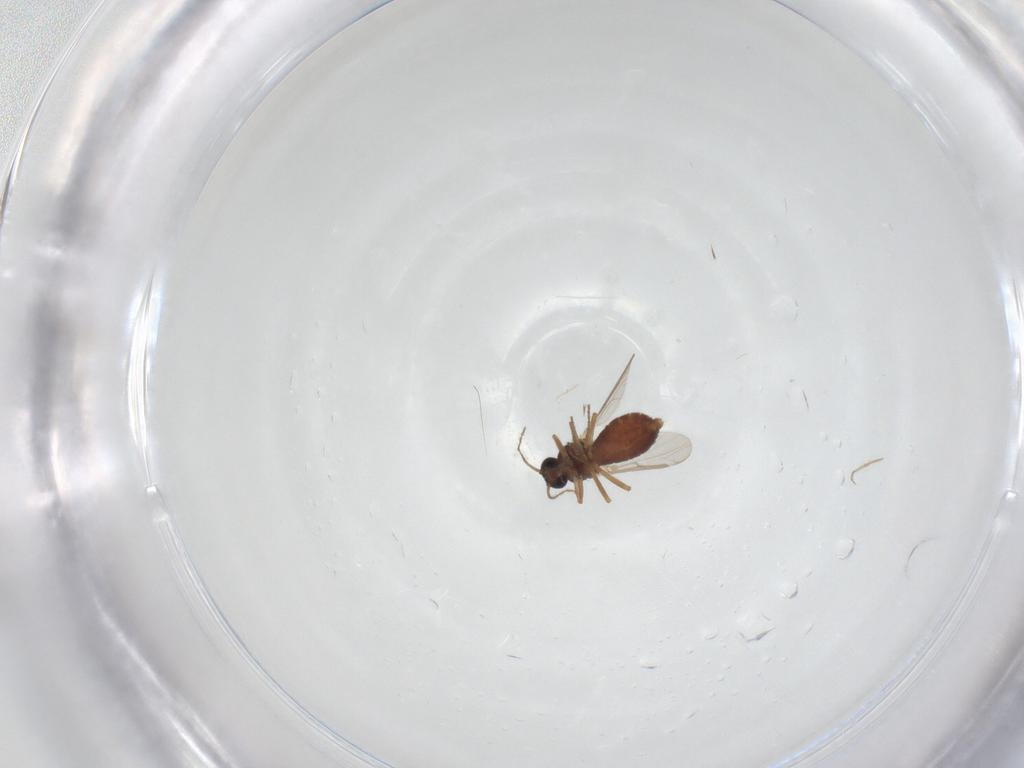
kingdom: Animalia
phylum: Arthropoda
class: Insecta
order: Diptera
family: Ceratopogonidae
